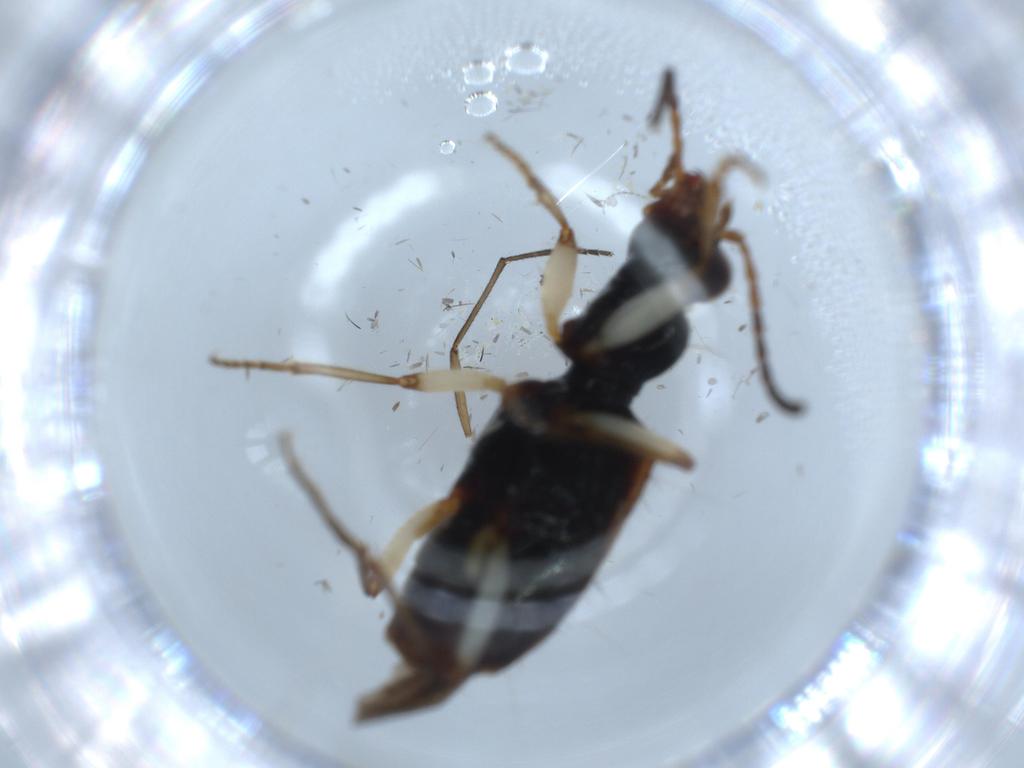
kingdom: Animalia
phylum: Arthropoda
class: Insecta
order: Coleoptera
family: Carabidae
